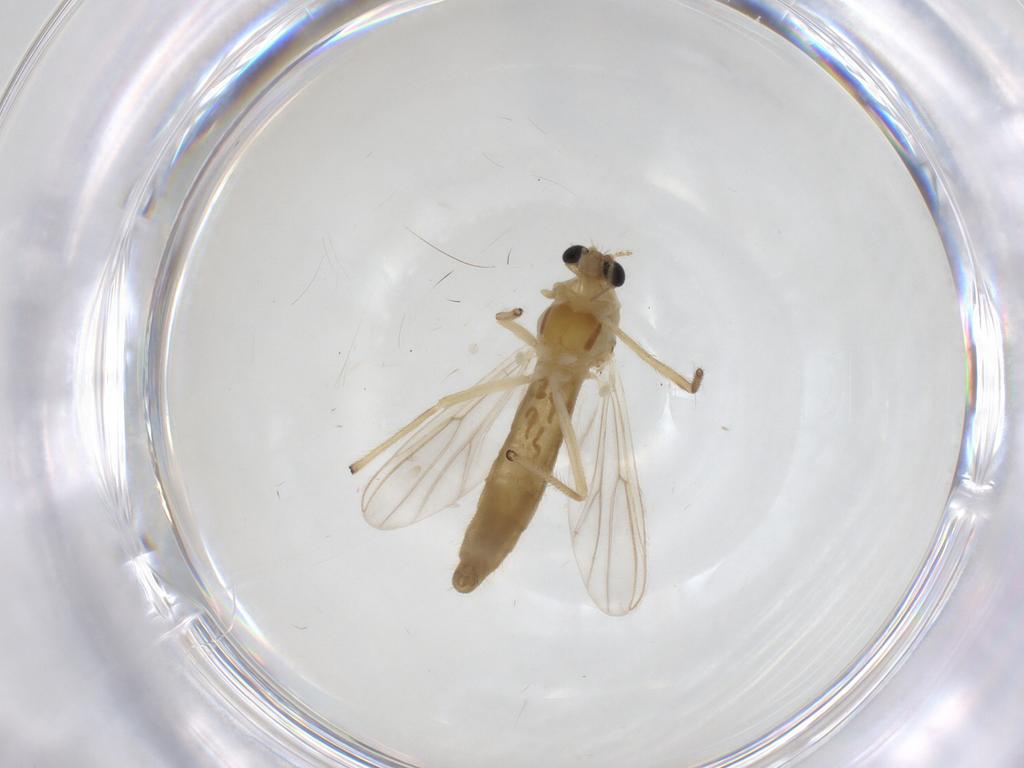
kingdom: Animalia
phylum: Arthropoda
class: Insecta
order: Diptera
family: Chironomidae
